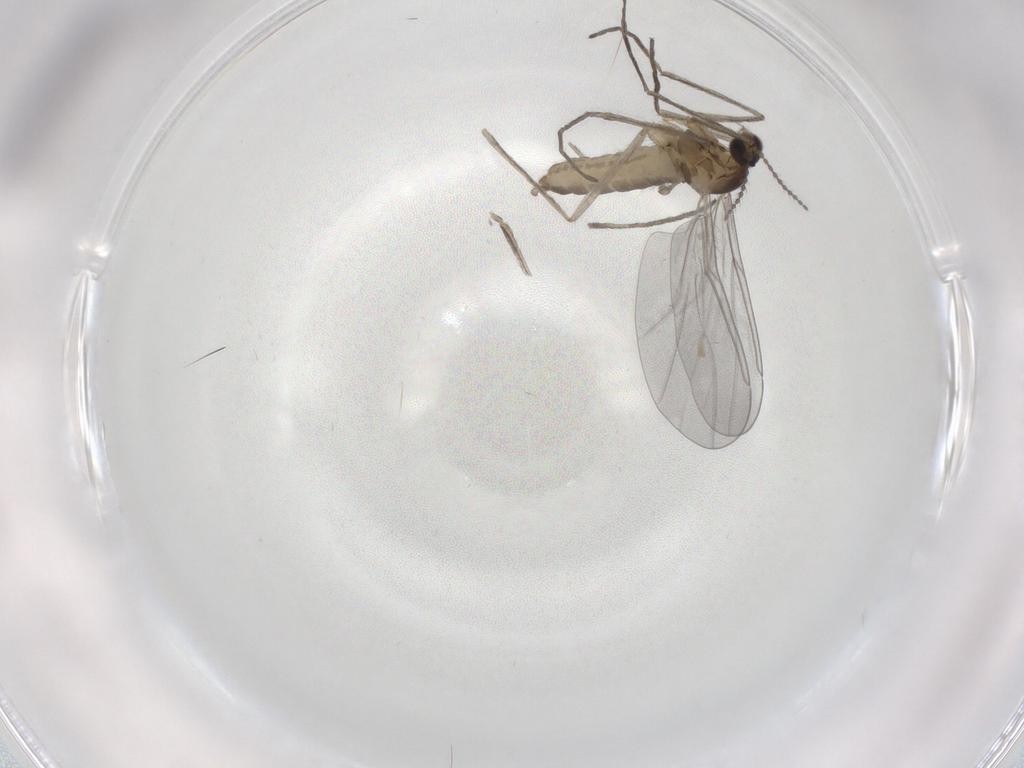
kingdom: Animalia
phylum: Arthropoda
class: Insecta
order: Diptera
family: Cecidomyiidae
